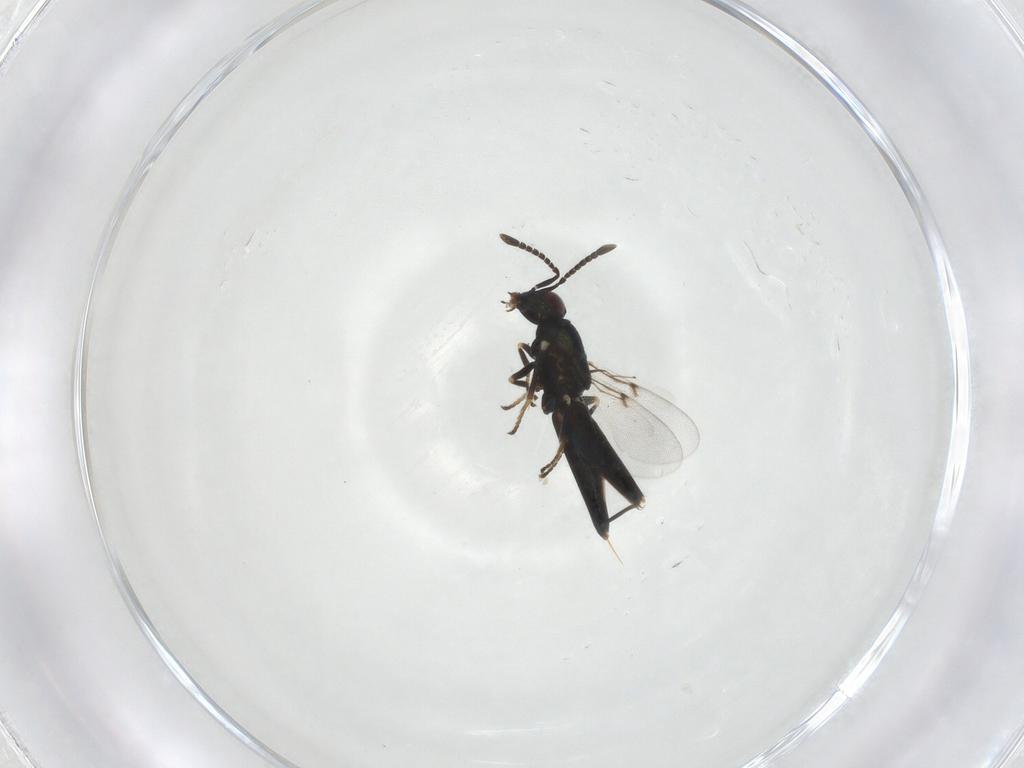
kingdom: Animalia
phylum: Arthropoda
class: Insecta
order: Hymenoptera
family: Encyrtidae
